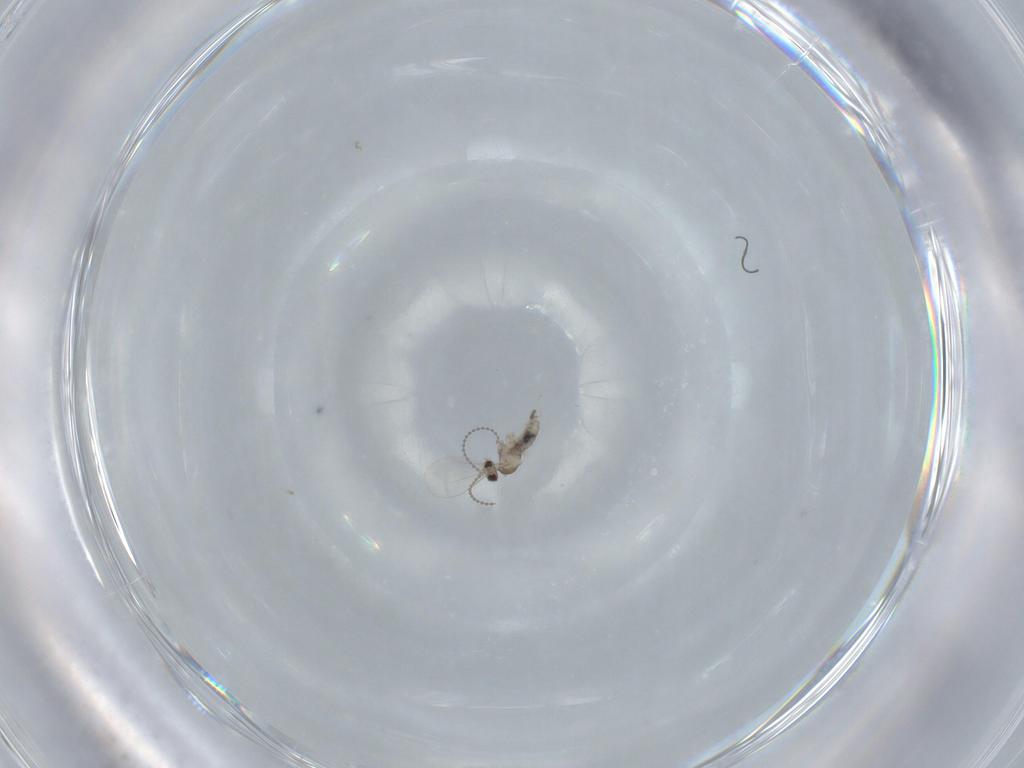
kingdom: Animalia
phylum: Arthropoda
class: Insecta
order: Diptera
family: Cecidomyiidae
